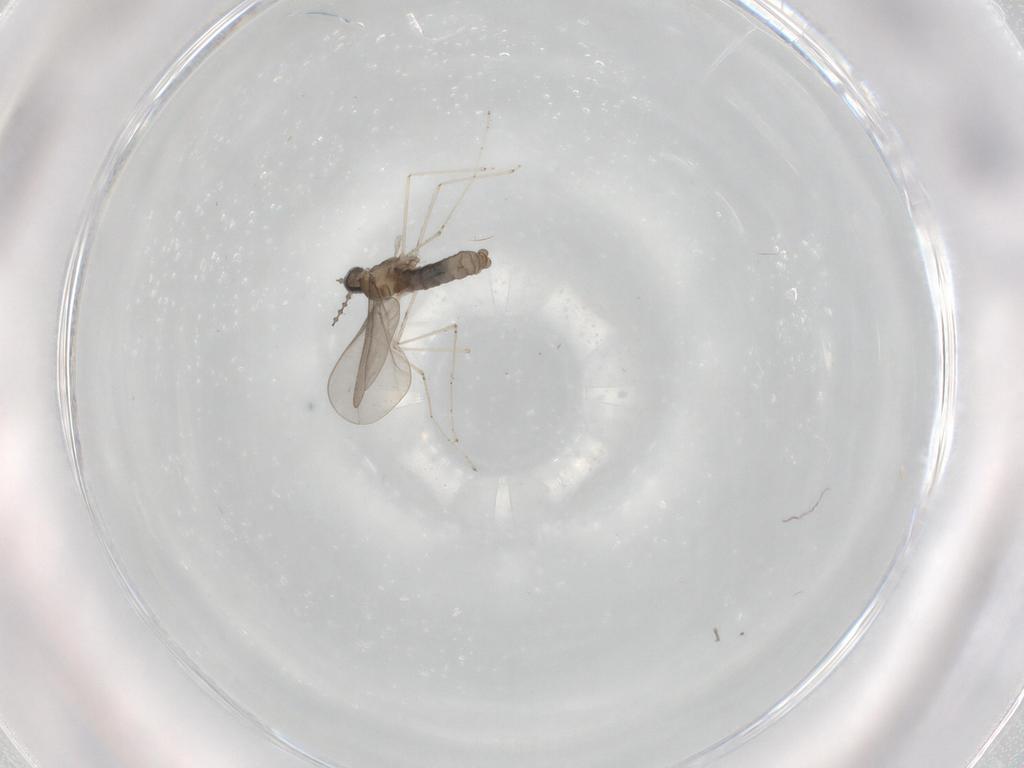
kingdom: Animalia
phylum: Arthropoda
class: Insecta
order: Diptera
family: Cecidomyiidae
